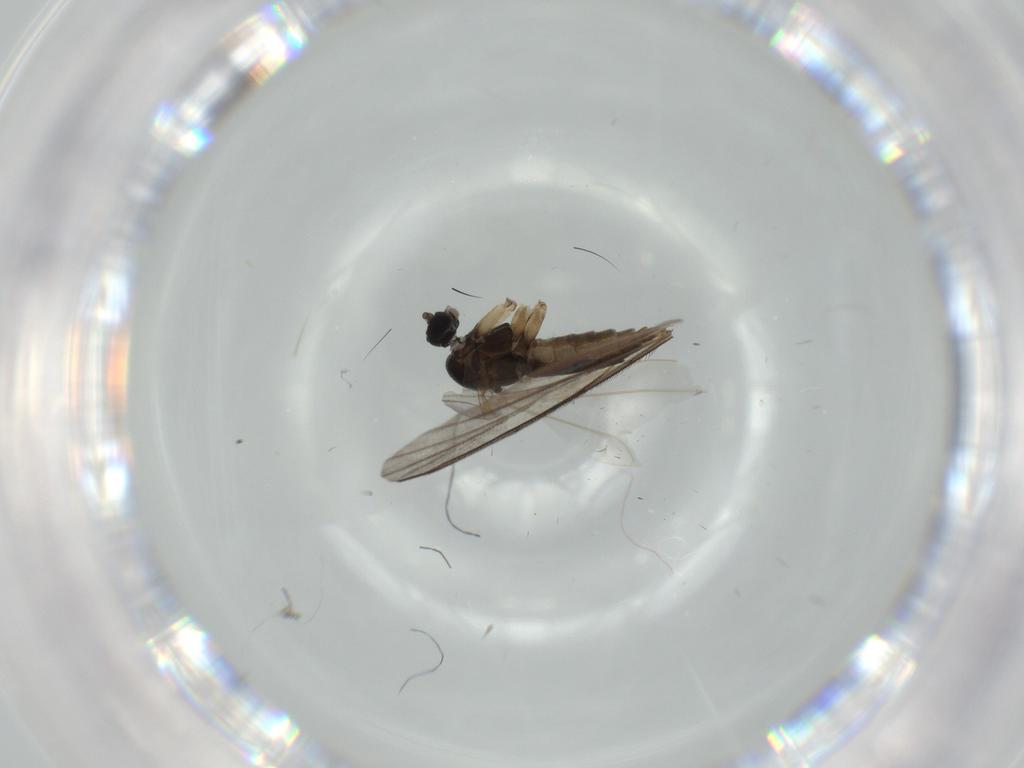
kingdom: Animalia
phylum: Arthropoda
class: Insecta
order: Diptera
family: Sciaridae
